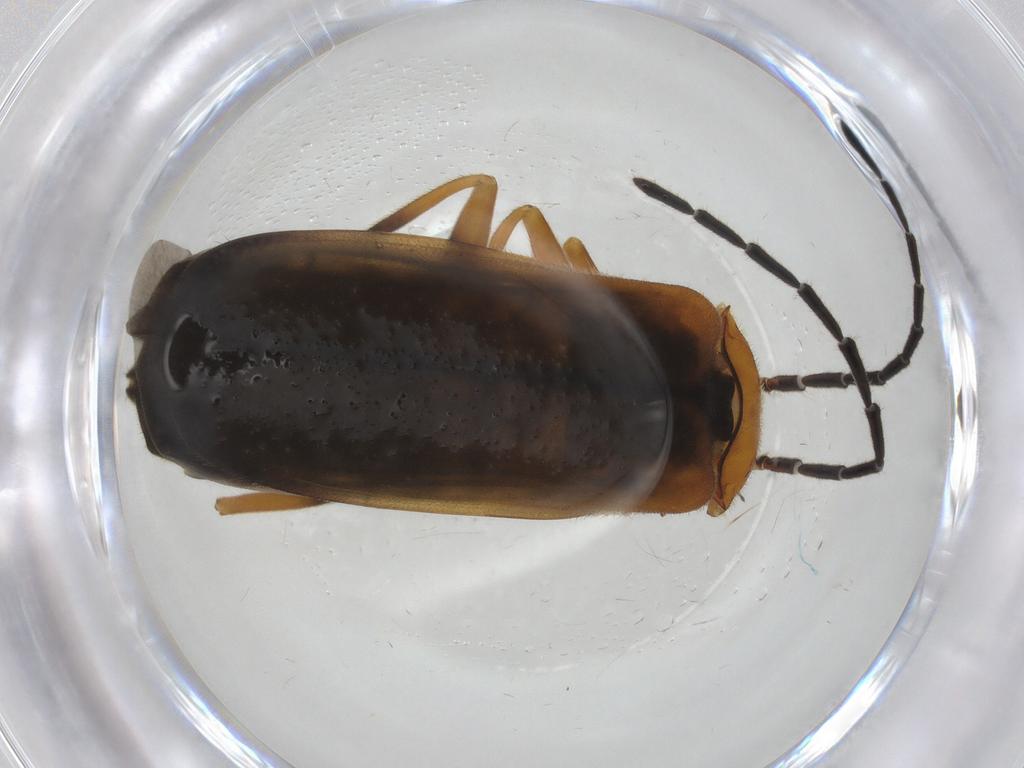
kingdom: Animalia
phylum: Arthropoda
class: Insecta
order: Coleoptera
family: Cantharidae
